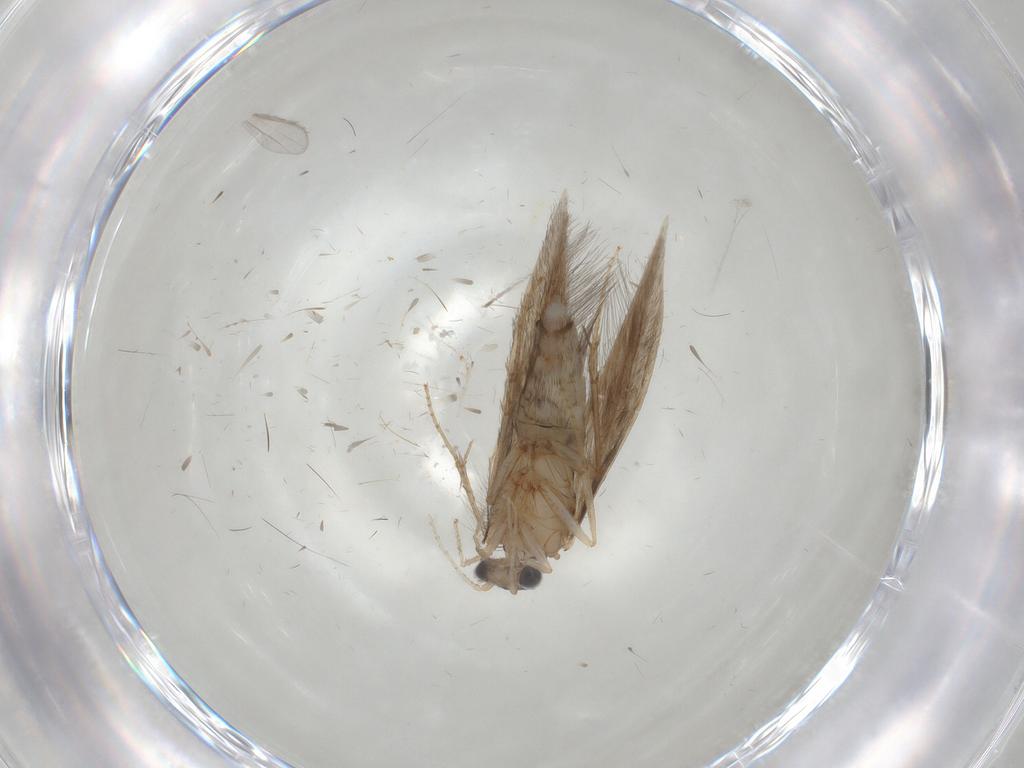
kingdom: Animalia
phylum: Arthropoda
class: Insecta
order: Trichoptera
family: Hydroptilidae
